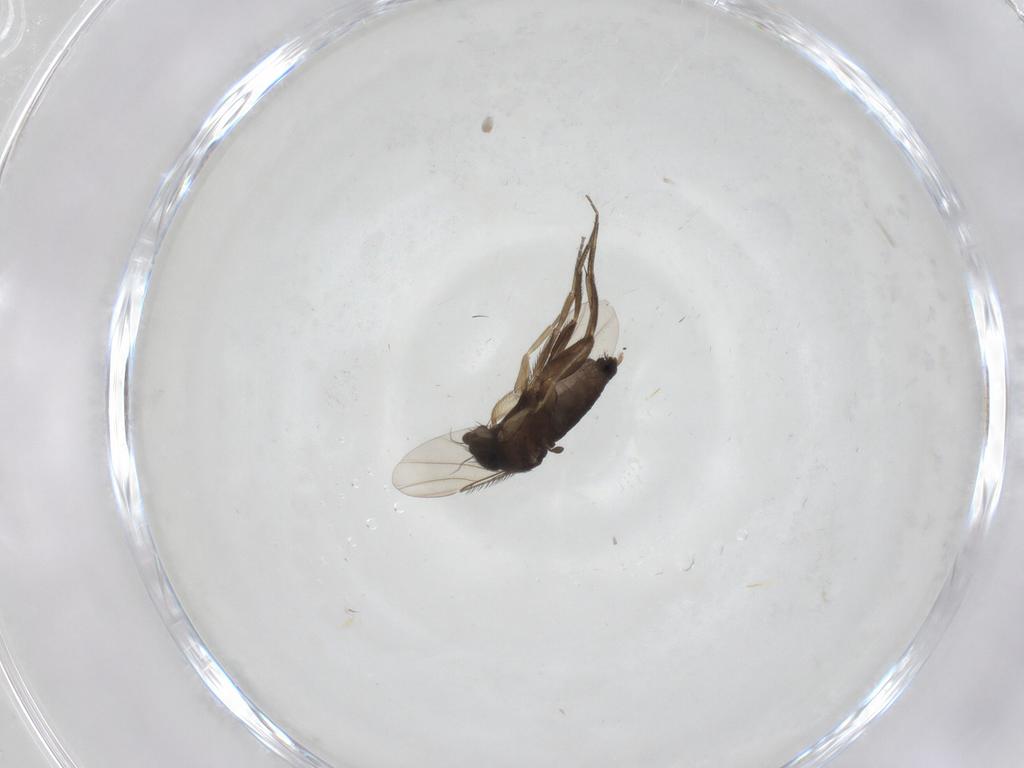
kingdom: Animalia
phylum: Arthropoda
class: Insecta
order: Diptera
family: Phoridae
